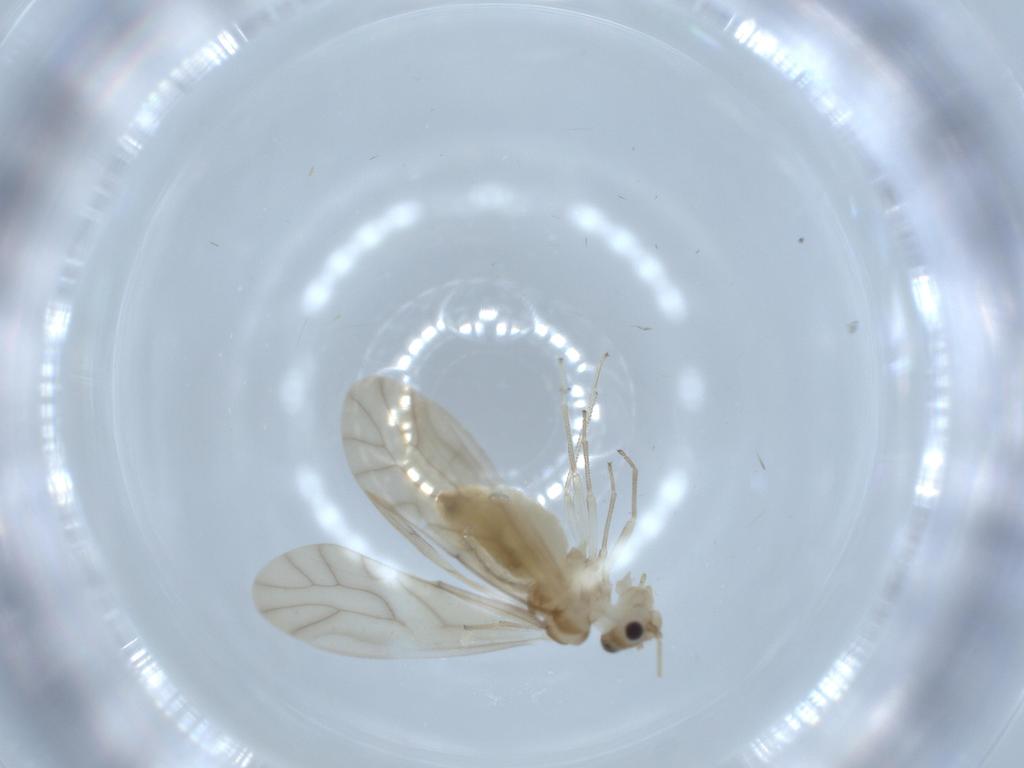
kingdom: Animalia
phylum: Arthropoda
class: Insecta
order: Psocodea
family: Caeciliusidae
